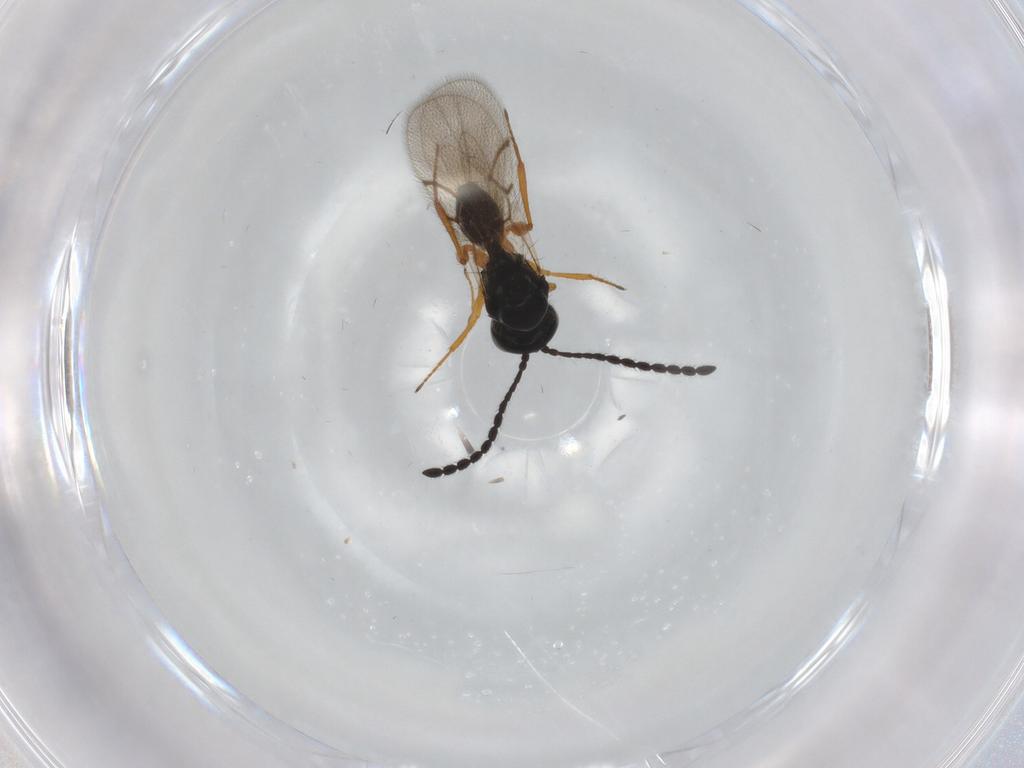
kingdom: Animalia
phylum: Arthropoda
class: Insecta
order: Hymenoptera
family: Figitidae
